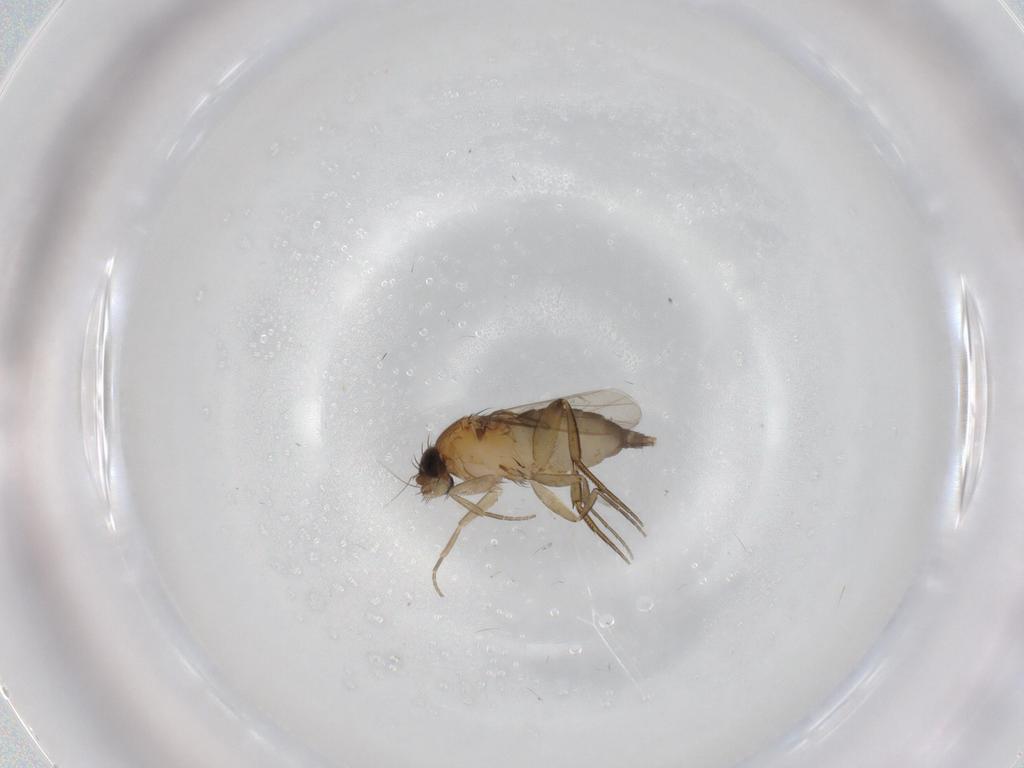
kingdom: Animalia
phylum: Arthropoda
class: Insecta
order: Diptera
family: Phoridae
